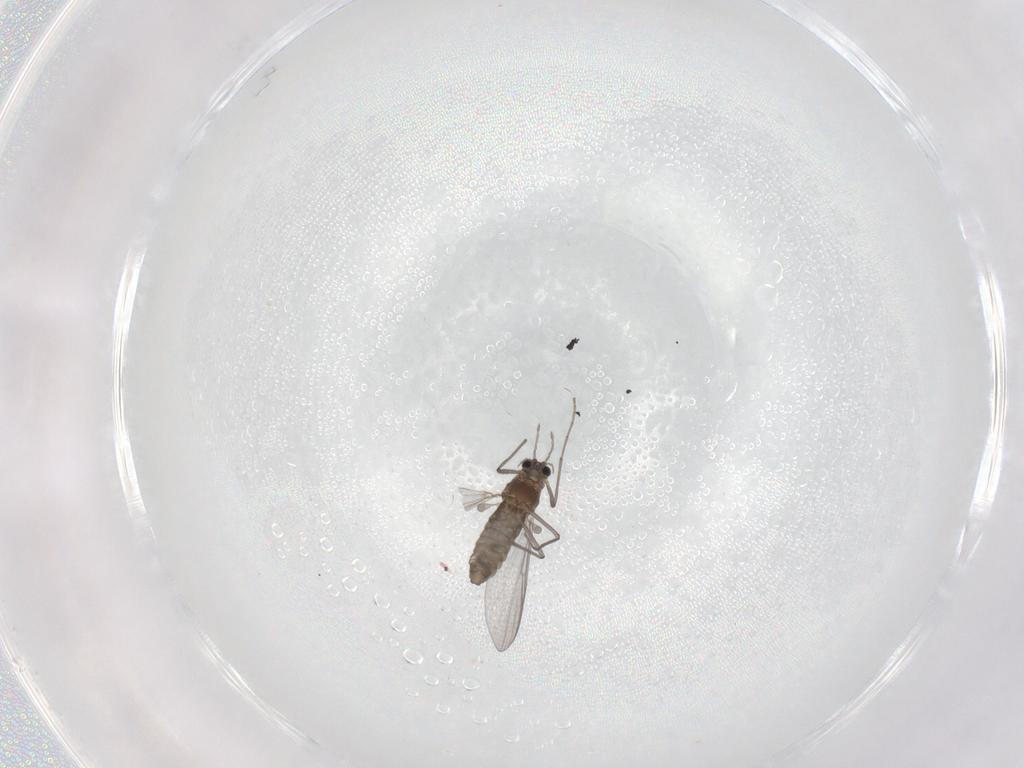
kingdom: Animalia
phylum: Arthropoda
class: Insecta
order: Diptera
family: Chironomidae
